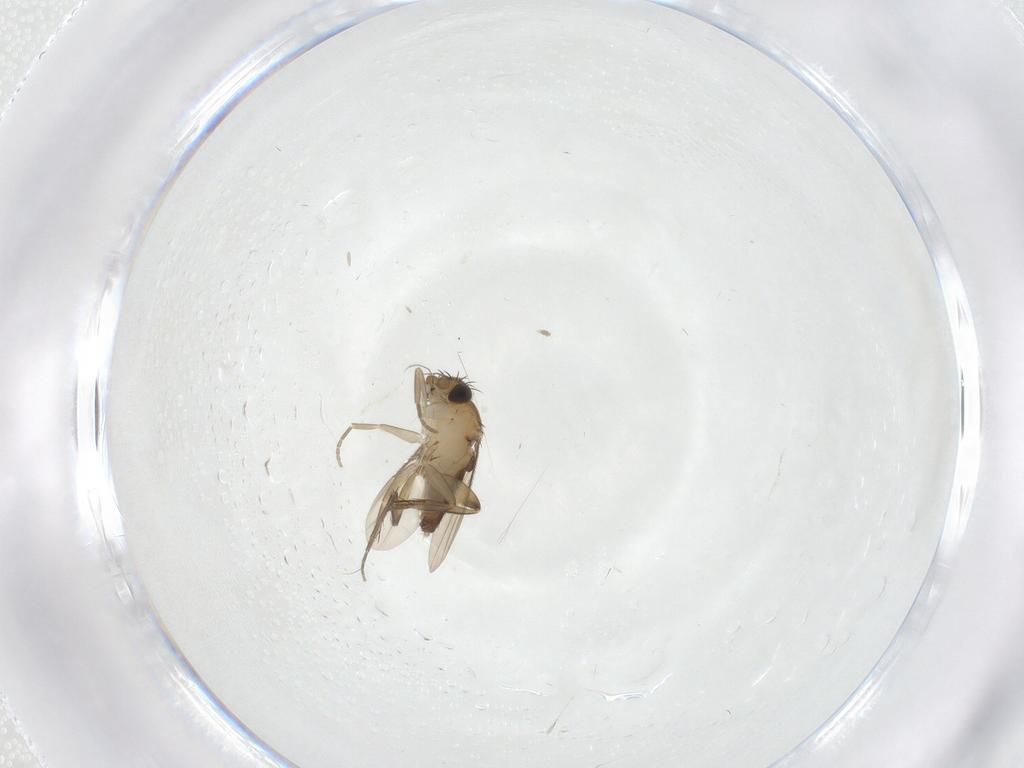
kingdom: Animalia
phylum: Arthropoda
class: Insecta
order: Diptera
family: Phoridae
